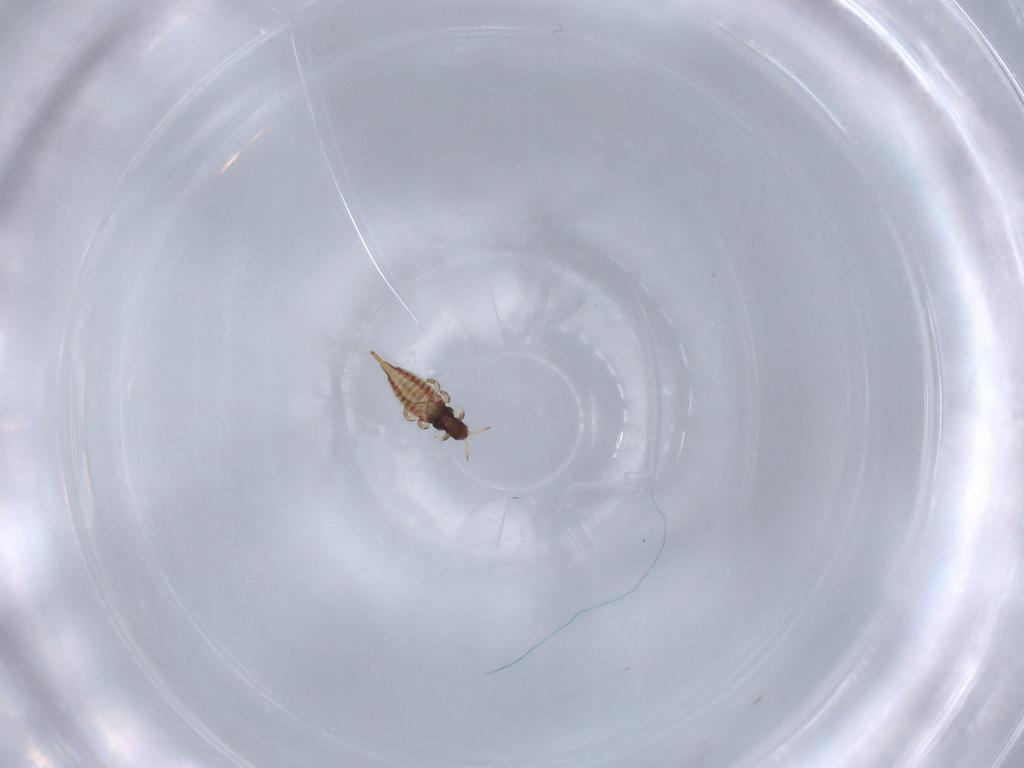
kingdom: Animalia
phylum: Arthropoda
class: Insecta
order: Thysanoptera
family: Phlaeothripidae
